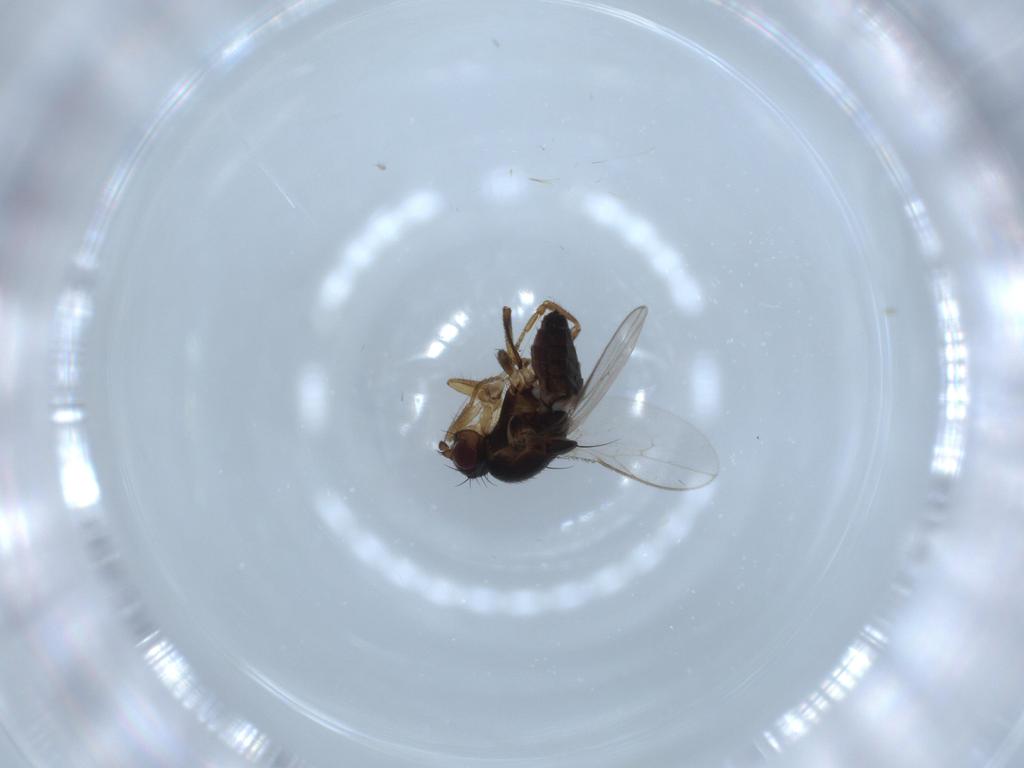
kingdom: Animalia
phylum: Arthropoda
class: Insecta
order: Diptera
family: Sphaeroceridae
